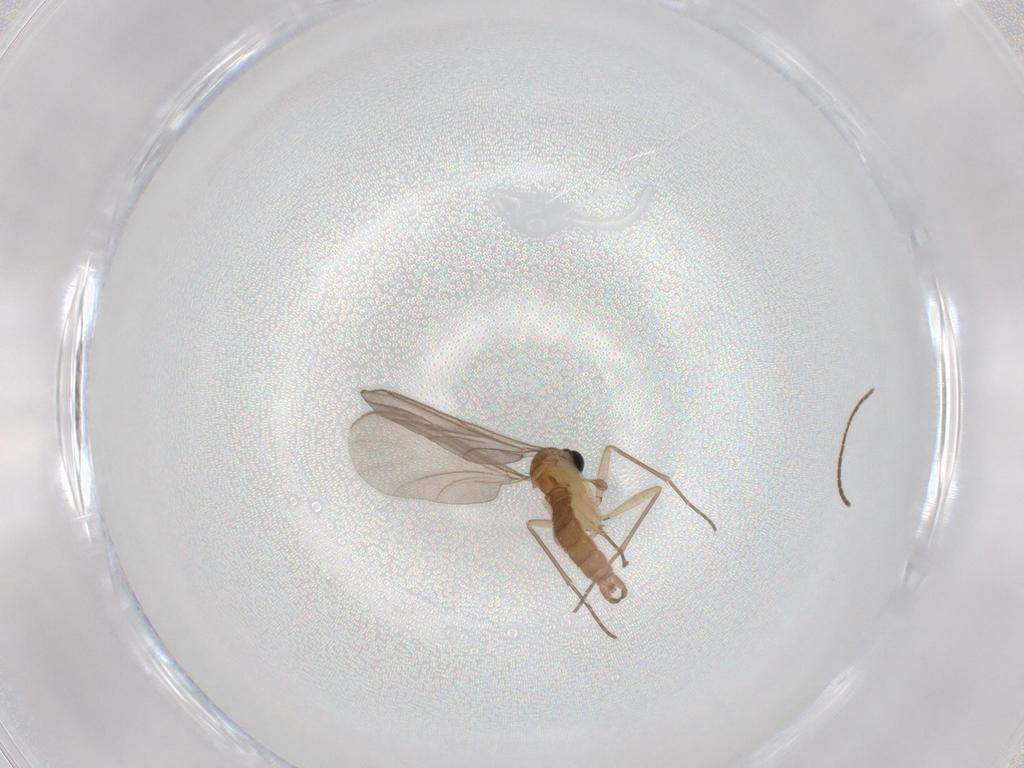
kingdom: Animalia
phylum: Arthropoda
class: Insecta
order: Diptera
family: Sciaridae
